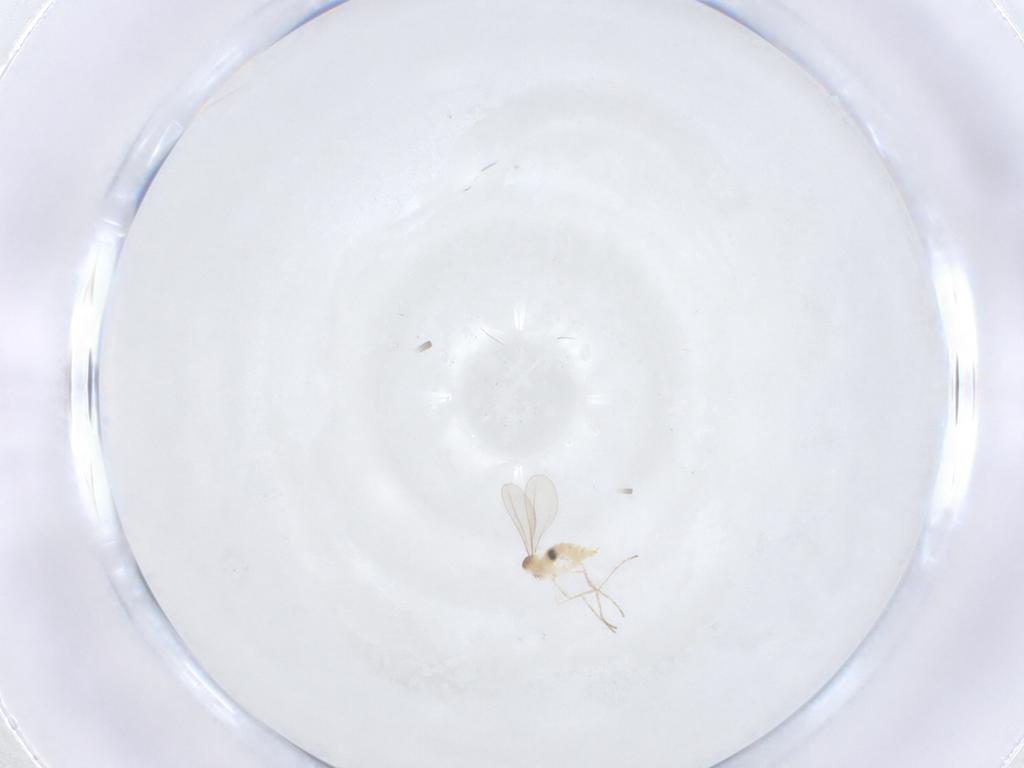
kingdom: Animalia
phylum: Arthropoda
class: Insecta
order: Diptera
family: Cecidomyiidae
